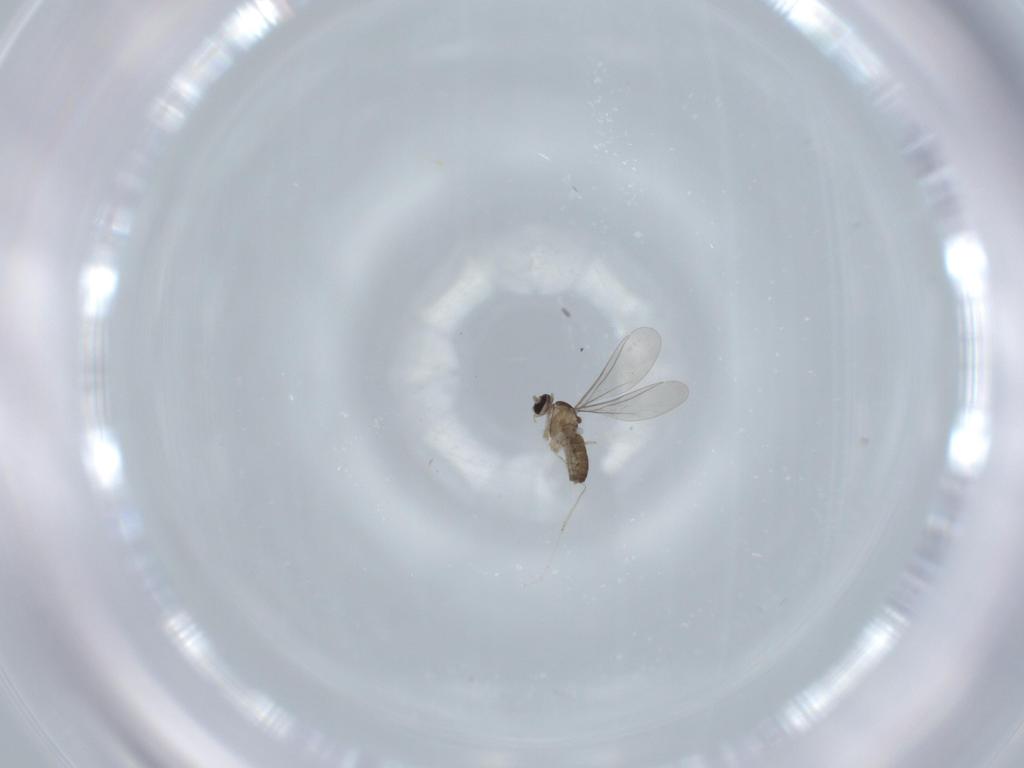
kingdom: Animalia
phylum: Arthropoda
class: Insecta
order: Diptera
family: Cecidomyiidae
